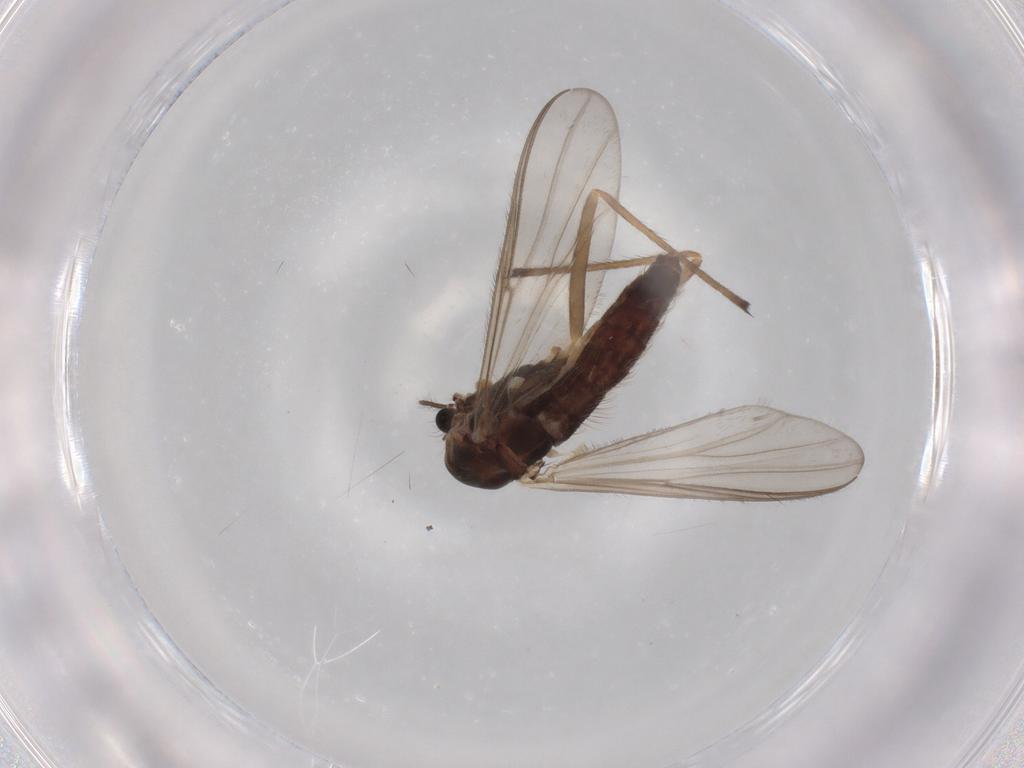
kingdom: Animalia
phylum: Arthropoda
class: Insecta
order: Diptera
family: Chironomidae
